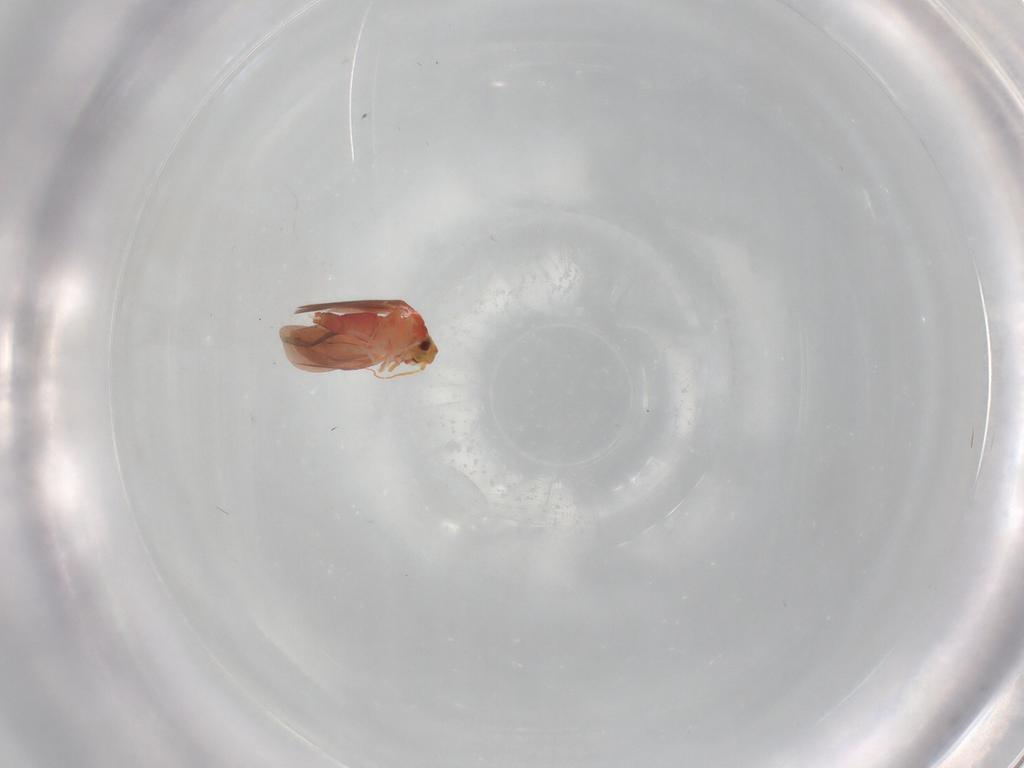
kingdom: Animalia
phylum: Arthropoda
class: Insecta
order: Hemiptera
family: Aleyrodidae
